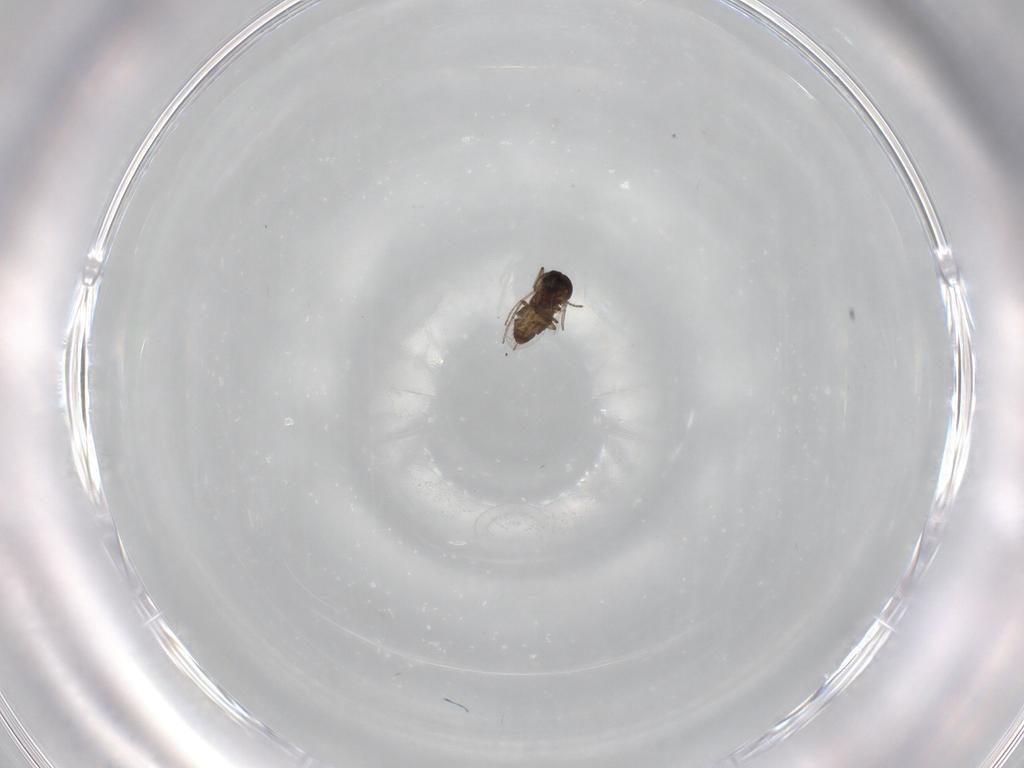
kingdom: Animalia
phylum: Arthropoda
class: Insecta
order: Diptera
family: Ceratopogonidae
